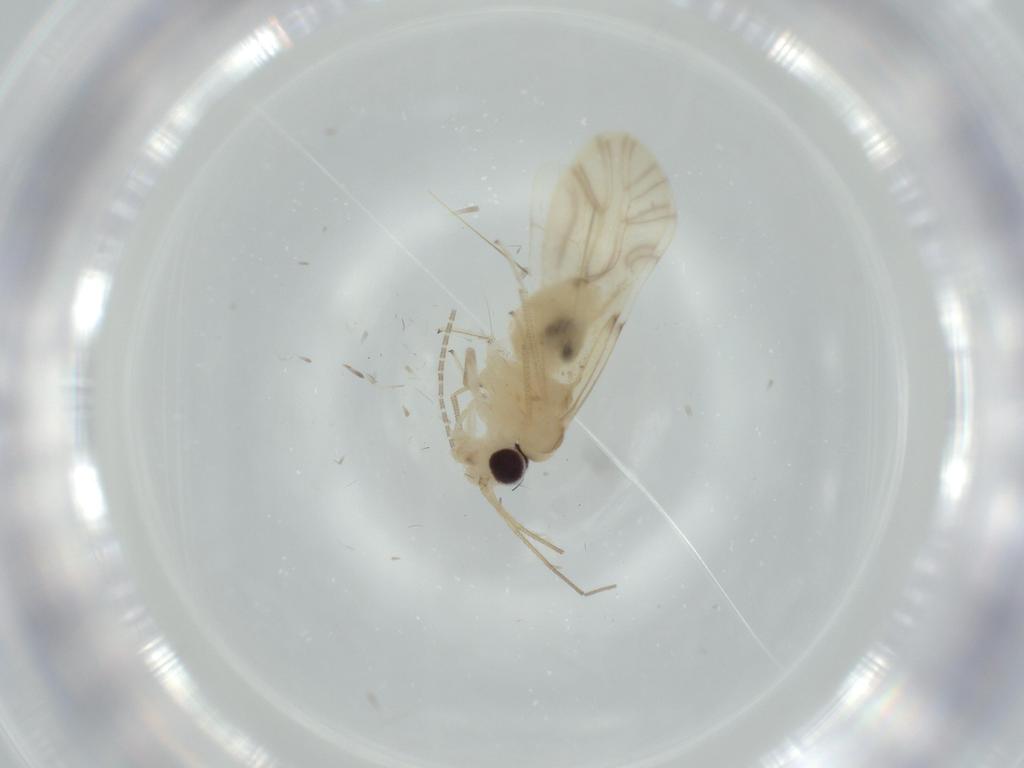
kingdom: Animalia
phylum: Arthropoda
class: Insecta
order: Psocodea
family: Caeciliusidae
